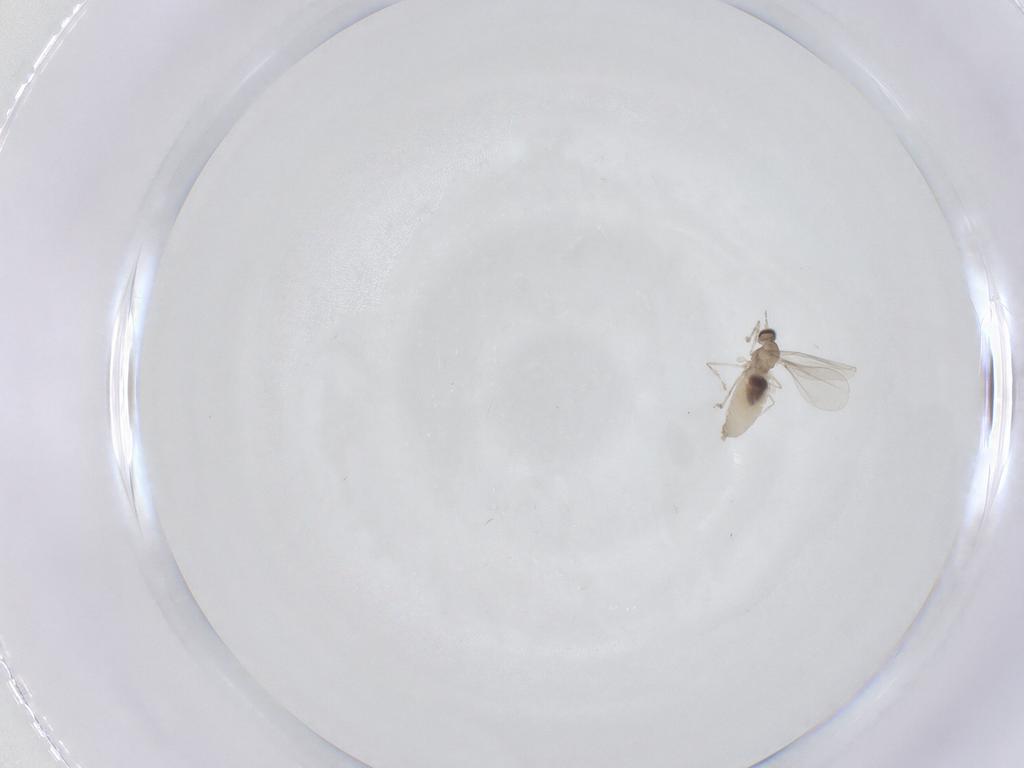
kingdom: Animalia
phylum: Arthropoda
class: Insecta
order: Diptera
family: Cecidomyiidae
